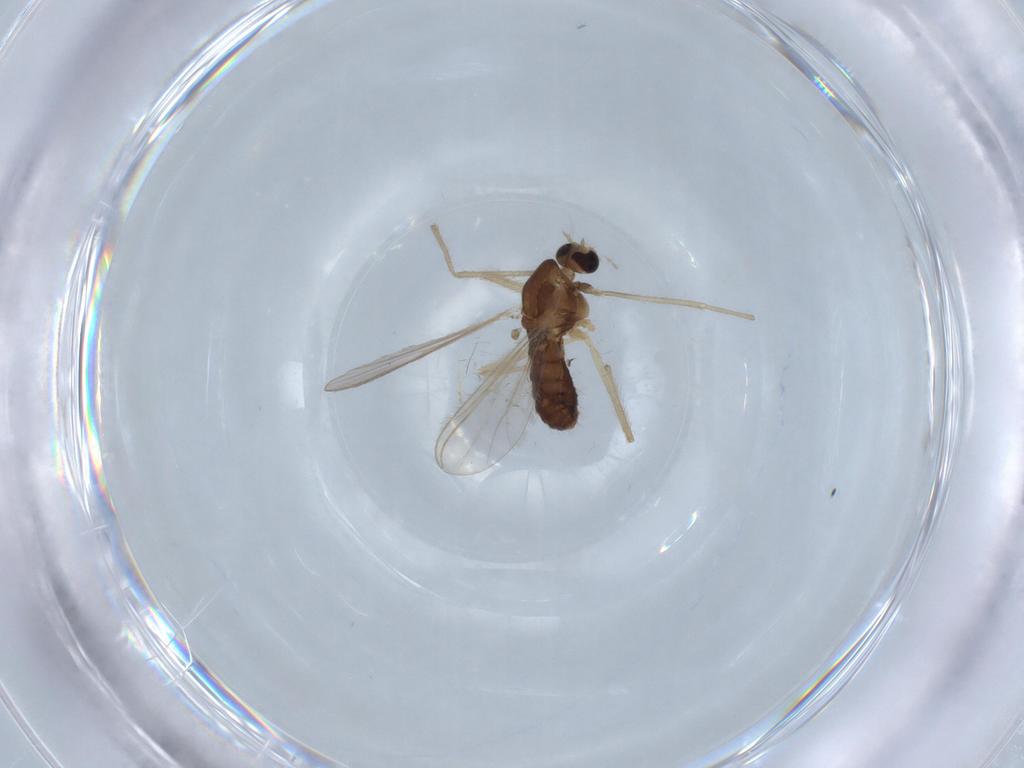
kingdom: Animalia
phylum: Arthropoda
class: Insecta
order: Diptera
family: Chironomidae
